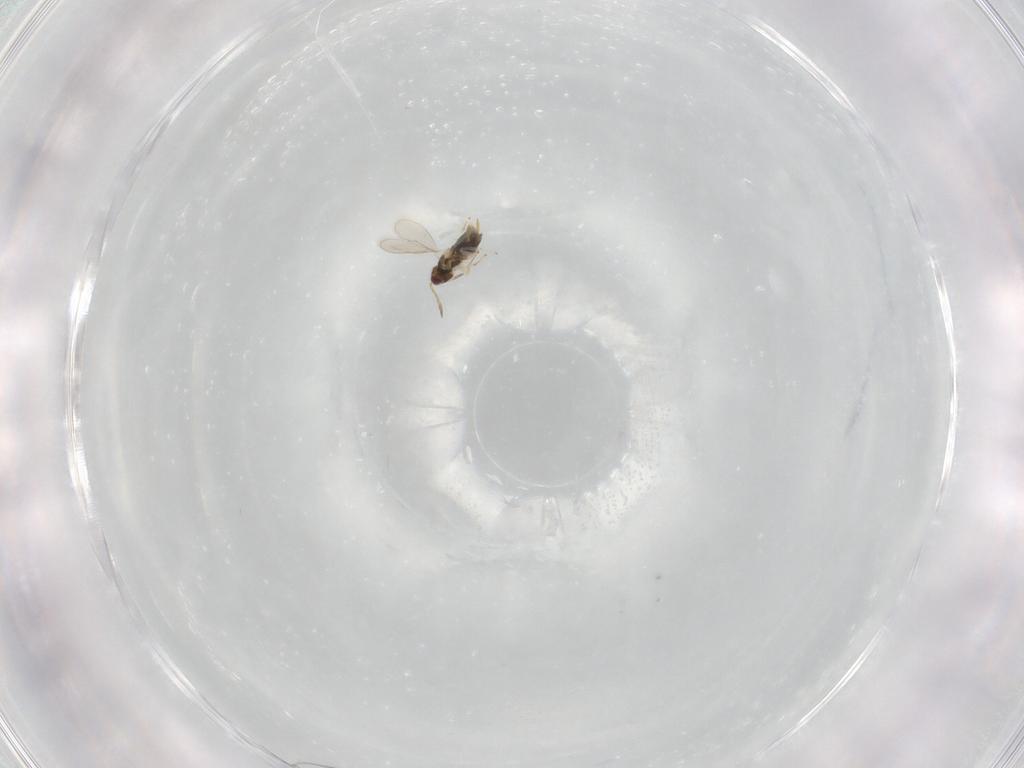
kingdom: Animalia
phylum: Arthropoda
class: Insecta
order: Hymenoptera
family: Aphelinidae
